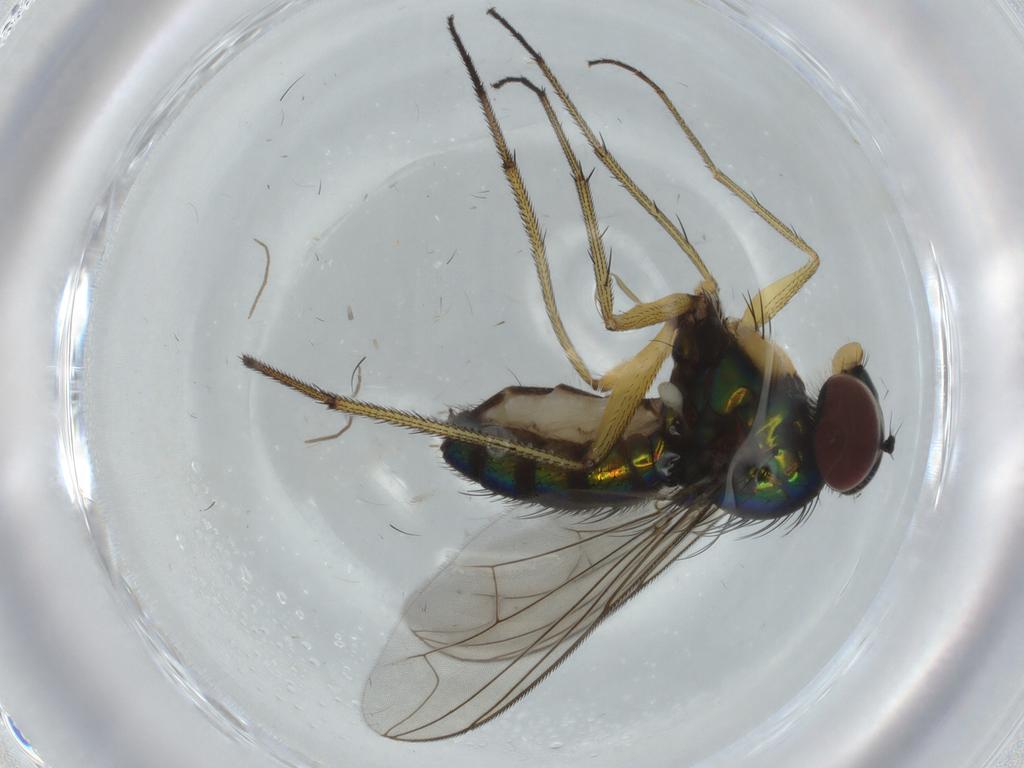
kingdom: Animalia
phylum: Arthropoda
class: Insecta
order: Diptera
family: Dolichopodidae
